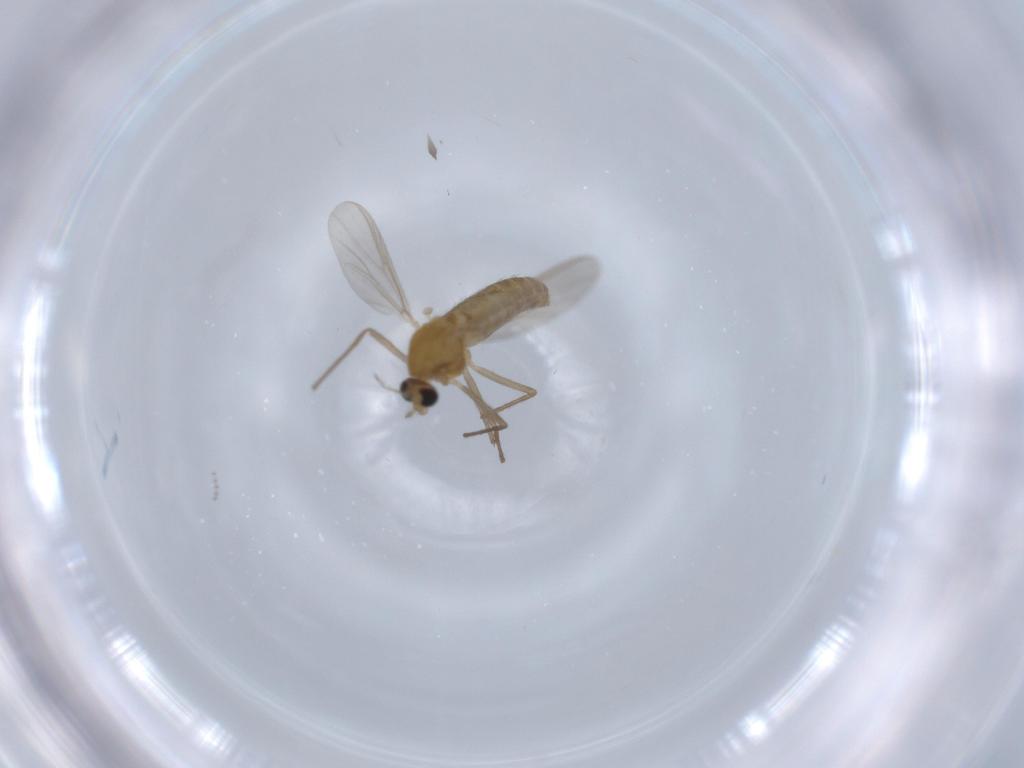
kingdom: Animalia
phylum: Arthropoda
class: Insecta
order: Diptera
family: Chironomidae
